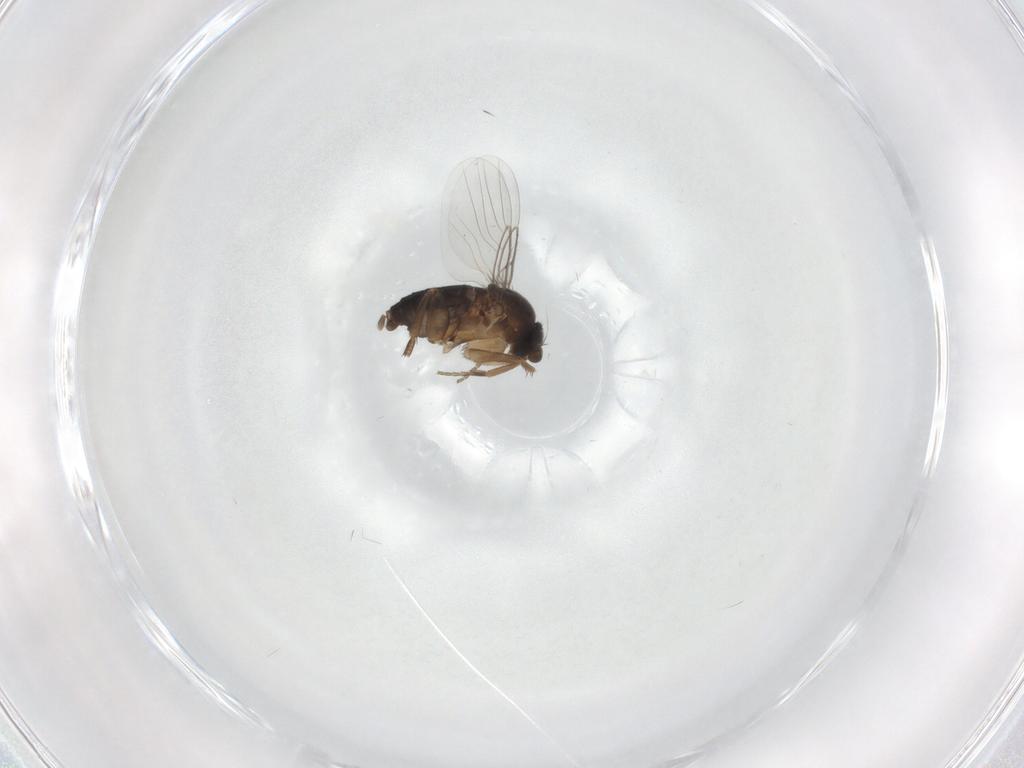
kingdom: Animalia
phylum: Arthropoda
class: Insecta
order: Diptera
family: Phoridae
